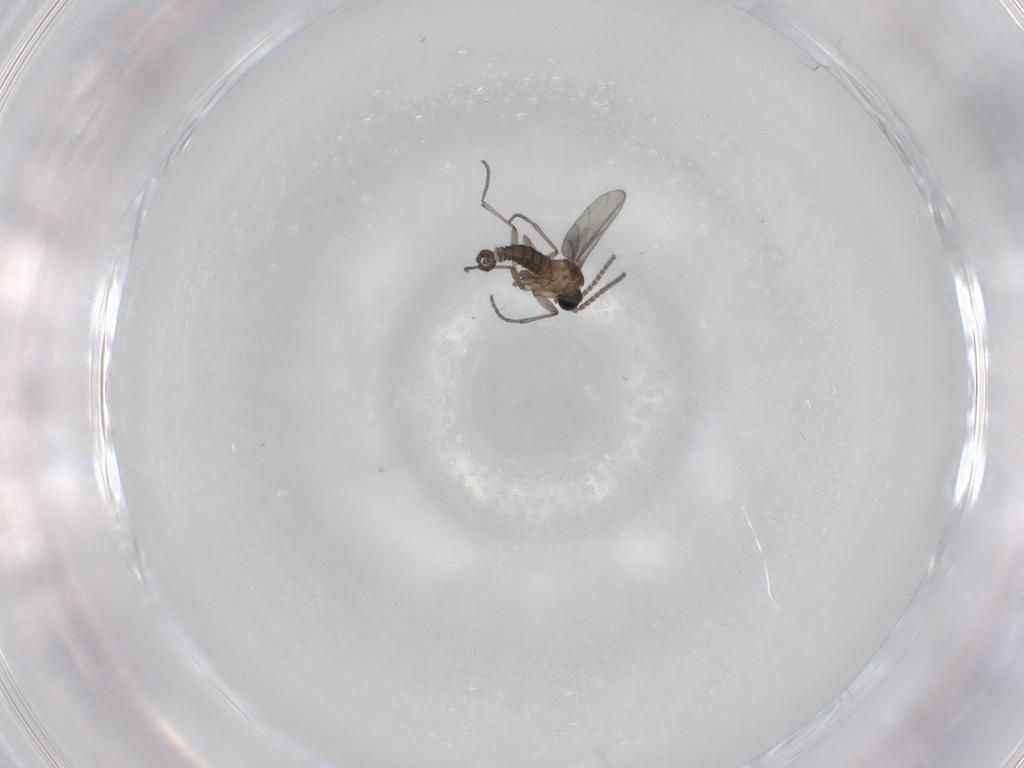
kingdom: Animalia
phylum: Arthropoda
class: Insecta
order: Diptera
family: Sciaridae
